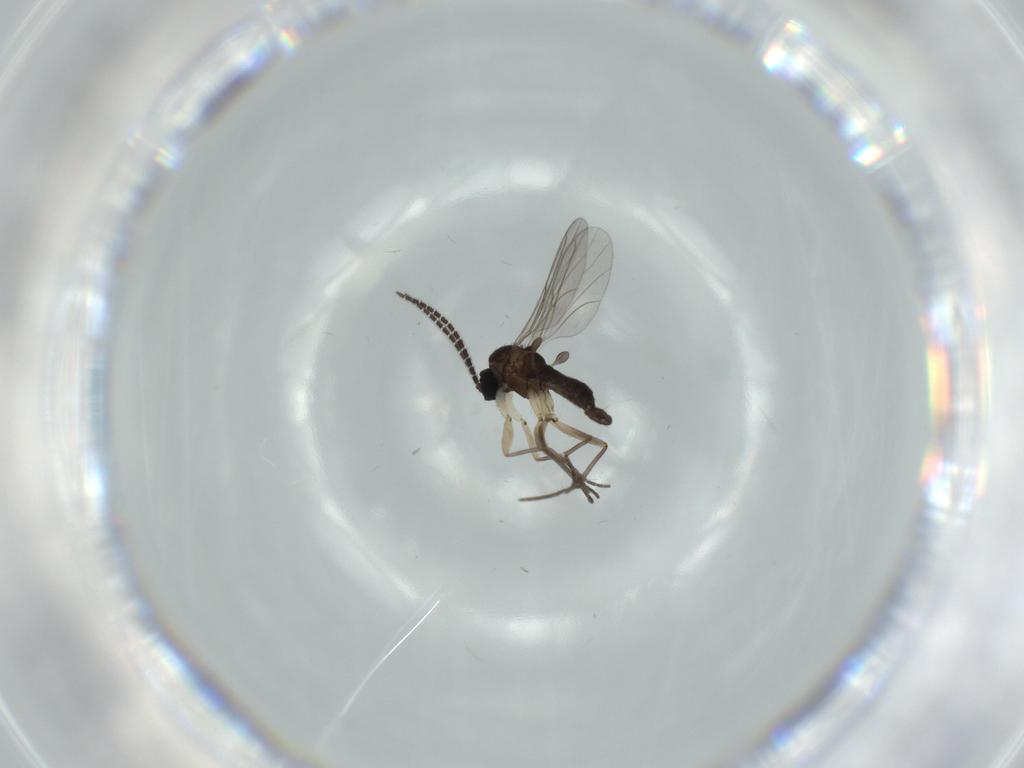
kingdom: Animalia
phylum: Arthropoda
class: Insecta
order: Diptera
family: Sciaridae
